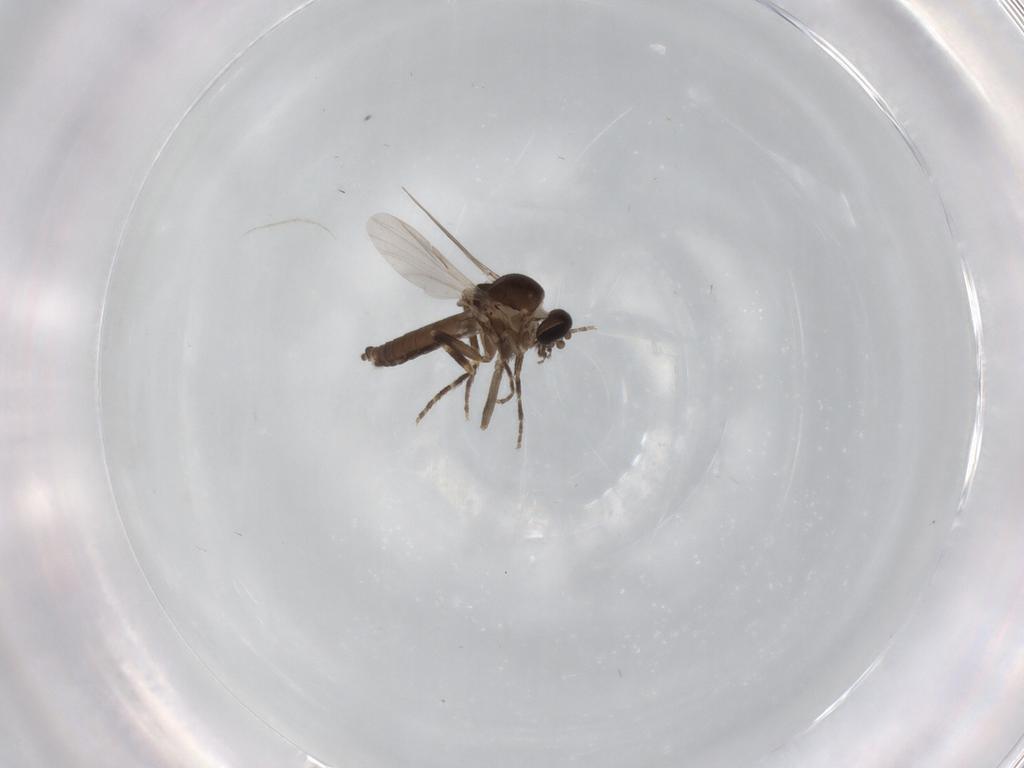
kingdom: Animalia
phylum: Arthropoda
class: Insecta
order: Diptera
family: Ceratopogonidae
